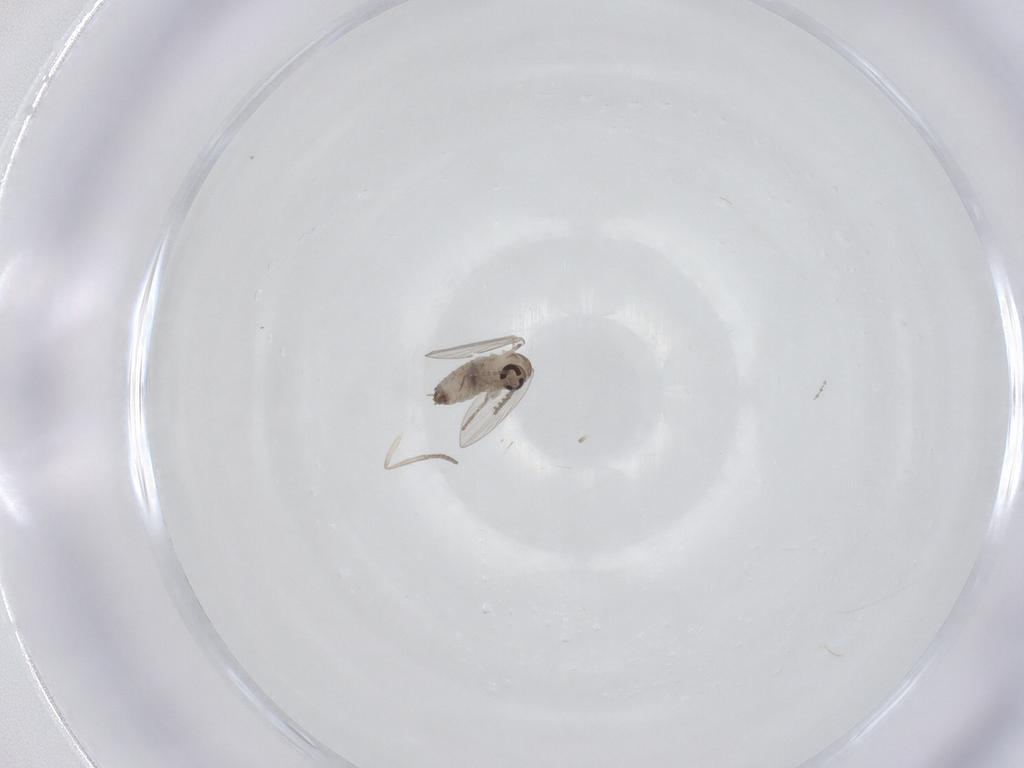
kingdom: Animalia
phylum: Arthropoda
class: Insecta
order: Diptera
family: Psychodidae
